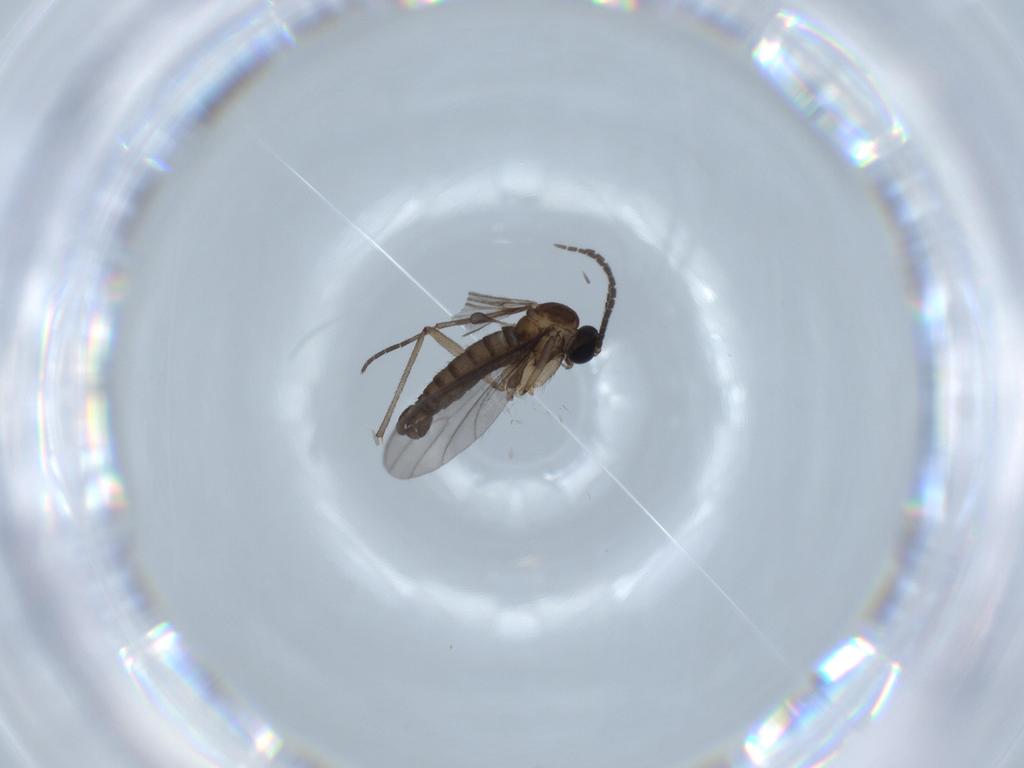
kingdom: Animalia
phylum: Arthropoda
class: Insecta
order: Diptera
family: Sciaridae
